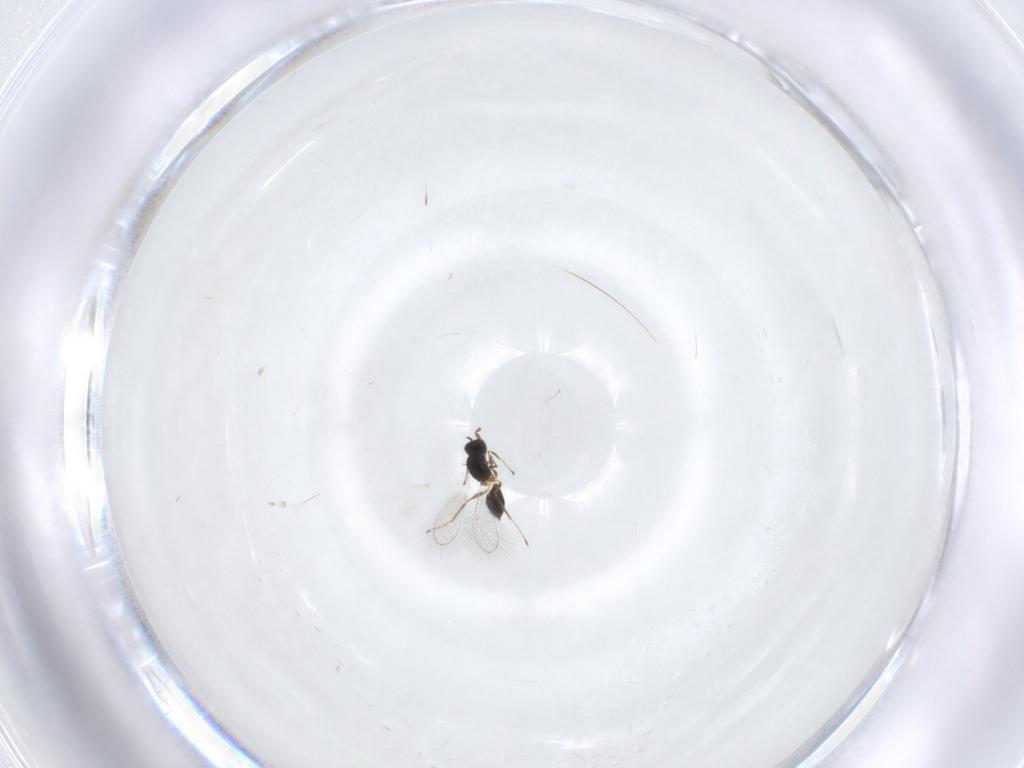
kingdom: Animalia
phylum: Arthropoda
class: Insecta
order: Hymenoptera
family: Mymaridae
